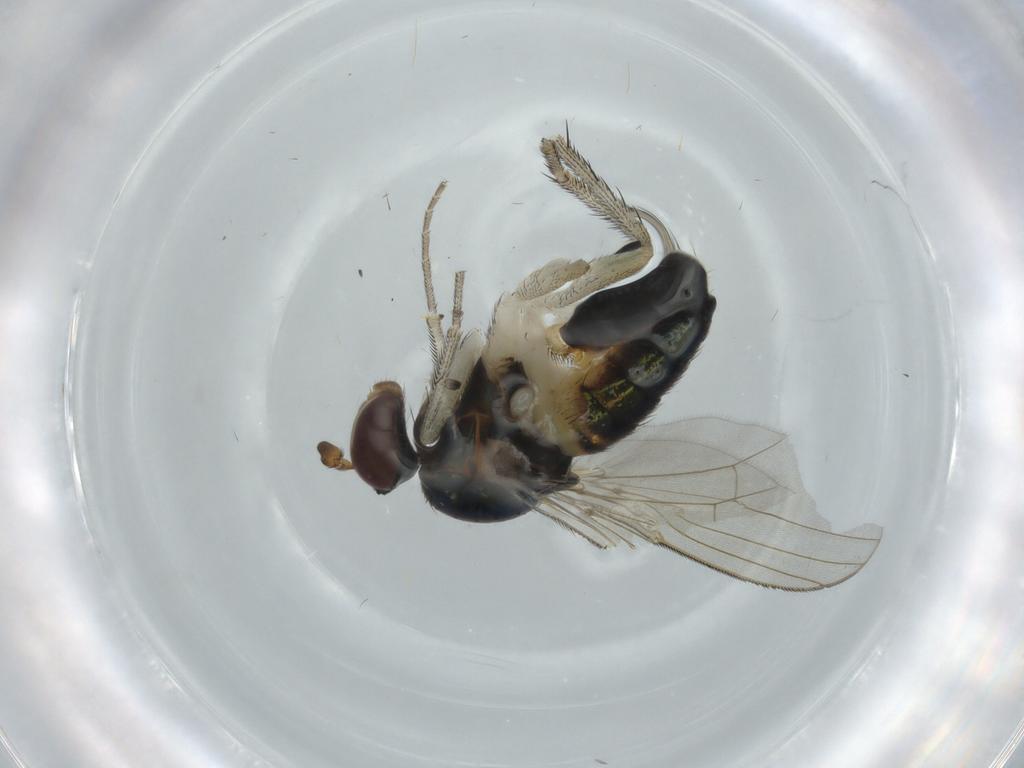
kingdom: Animalia
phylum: Arthropoda
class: Insecta
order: Diptera
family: Dolichopodidae
